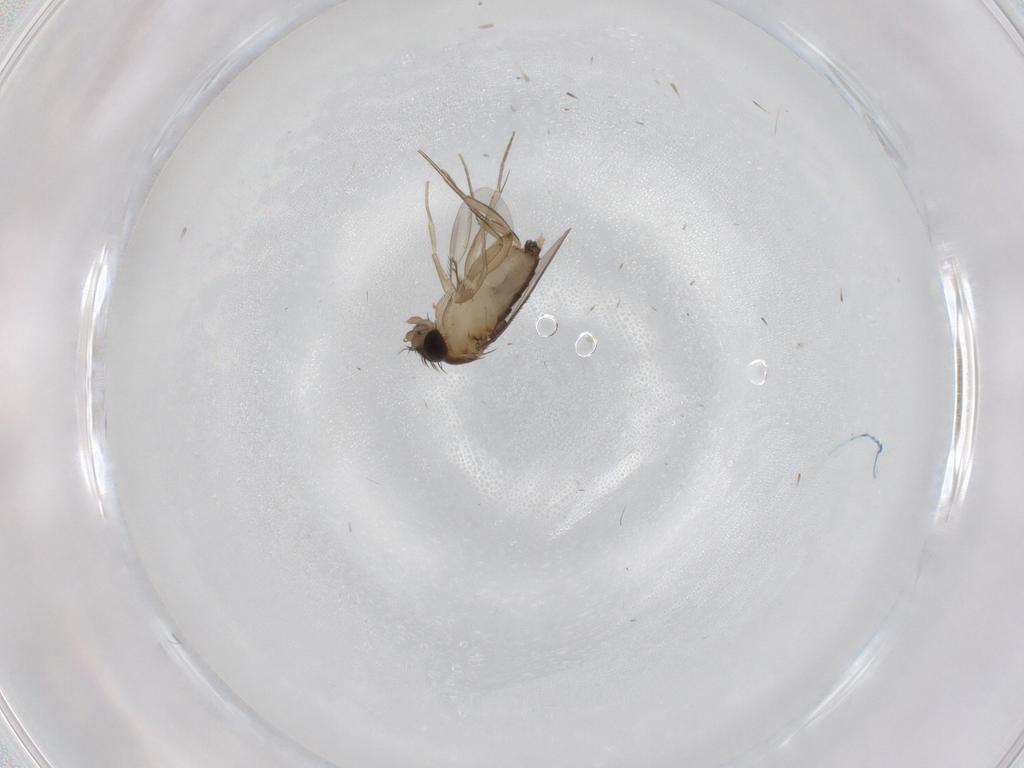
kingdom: Animalia
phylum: Arthropoda
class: Insecta
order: Diptera
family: Phoridae
